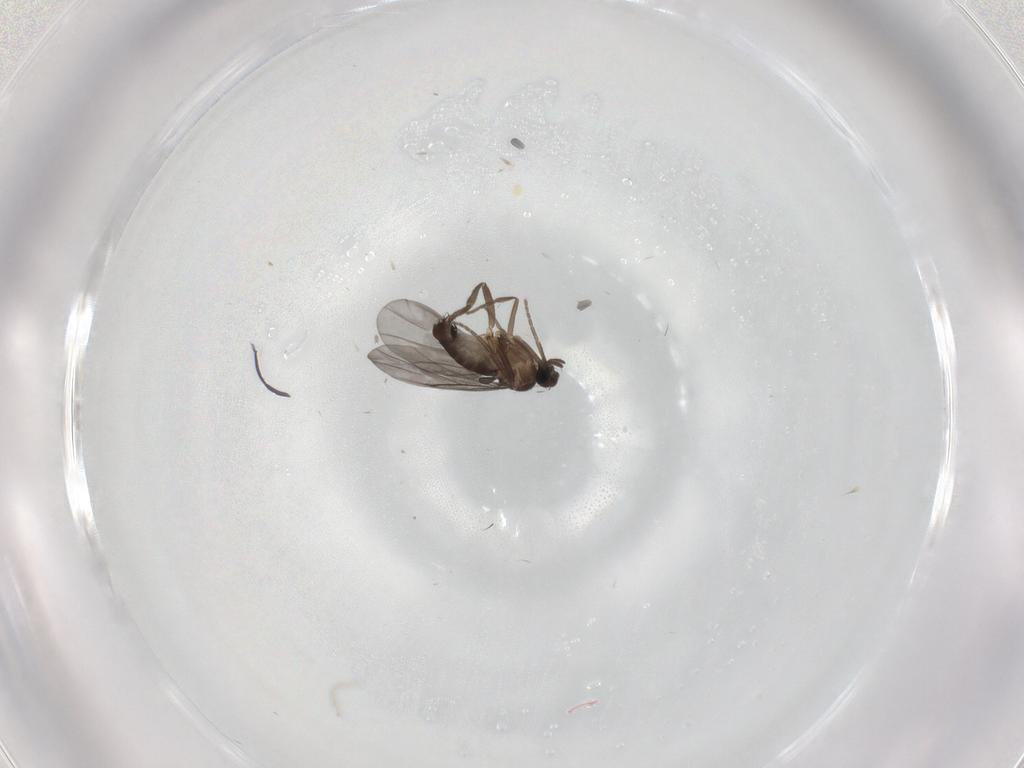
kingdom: Animalia
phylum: Arthropoda
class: Insecta
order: Diptera
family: Phoridae
